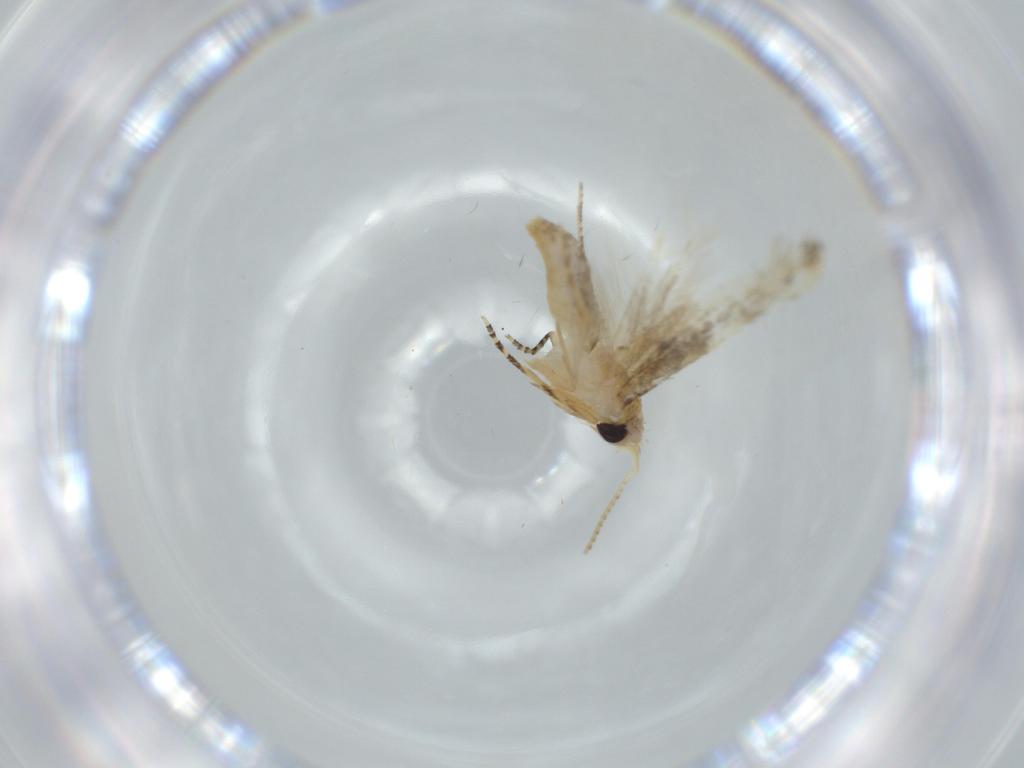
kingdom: Animalia
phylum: Arthropoda
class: Insecta
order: Lepidoptera
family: Bucculatricidae
